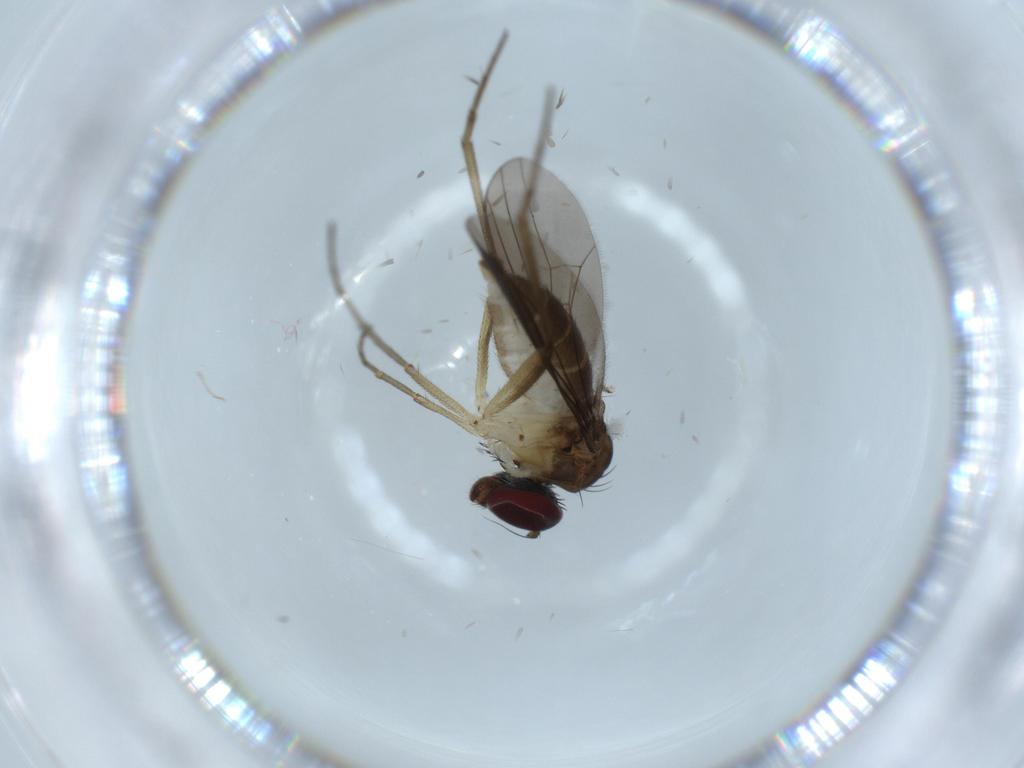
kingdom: Animalia
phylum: Arthropoda
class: Insecta
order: Diptera
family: Dolichopodidae
